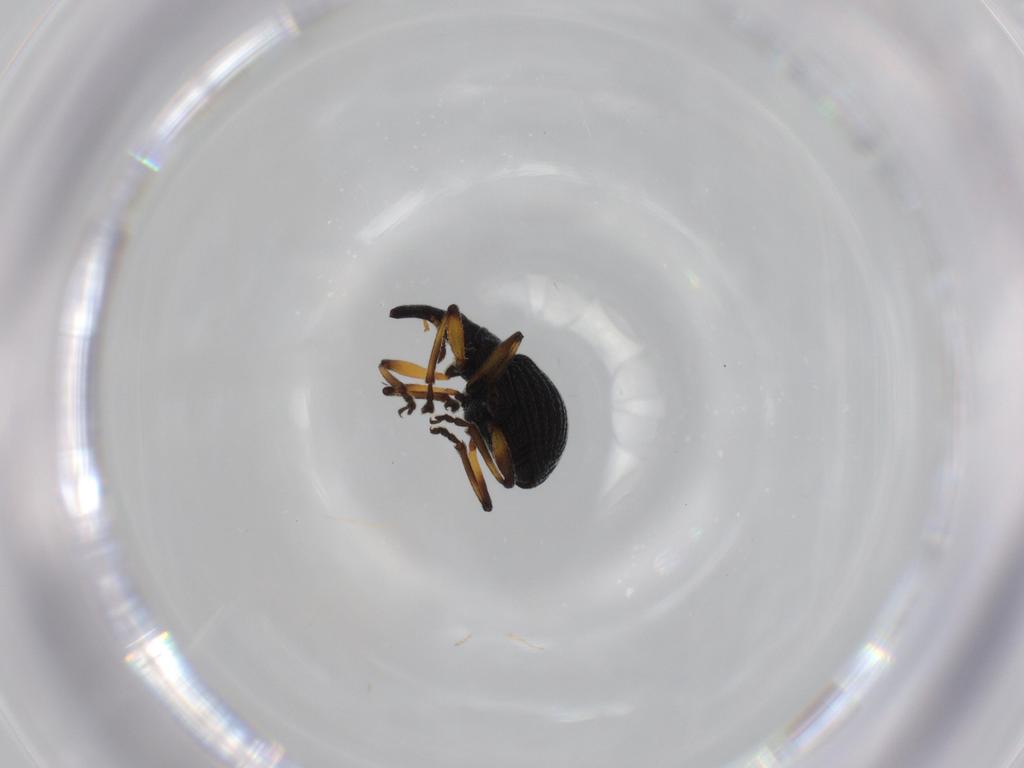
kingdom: Animalia
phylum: Arthropoda
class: Insecta
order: Coleoptera
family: Brentidae
